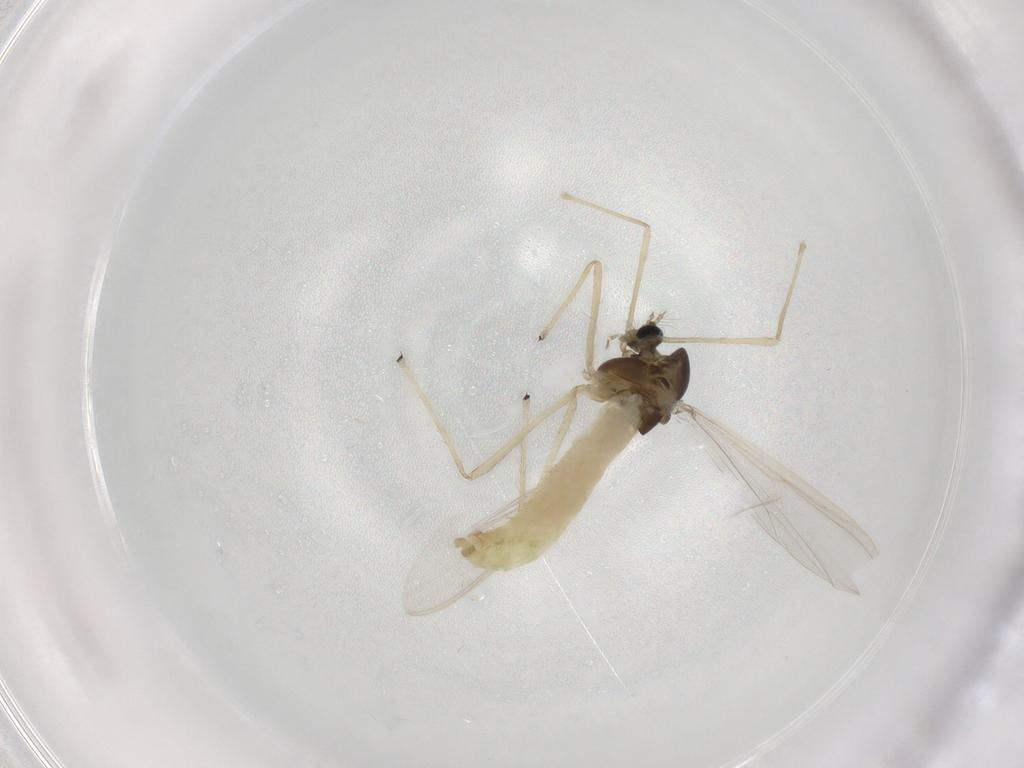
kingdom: Animalia
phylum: Arthropoda
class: Insecta
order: Diptera
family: Chironomidae
